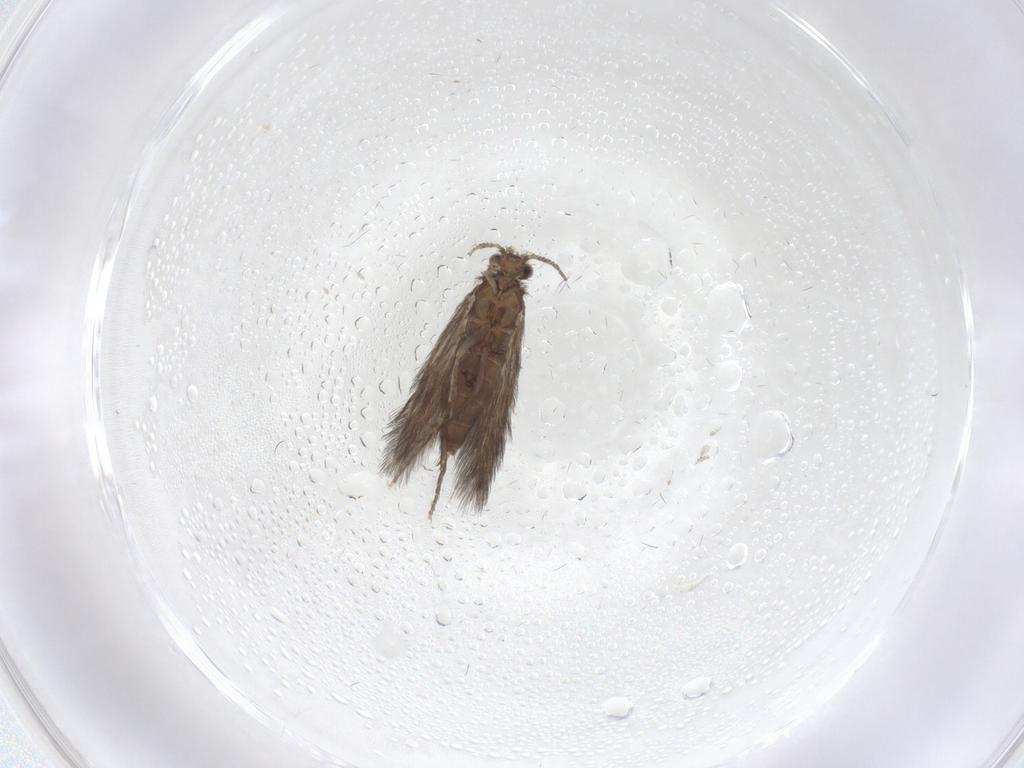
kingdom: Animalia
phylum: Arthropoda
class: Insecta
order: Trichoptera
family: Hydroptilidae
